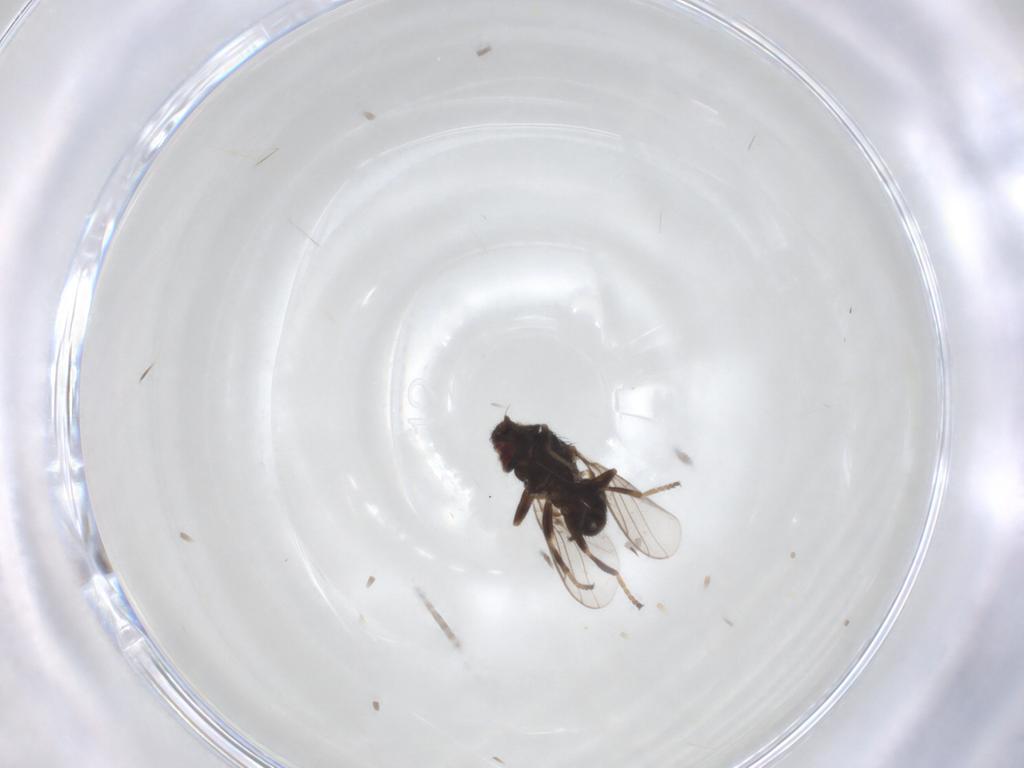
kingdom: Animalia
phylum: Arthropoda
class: Insecta
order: Diptera
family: Chloropidae
